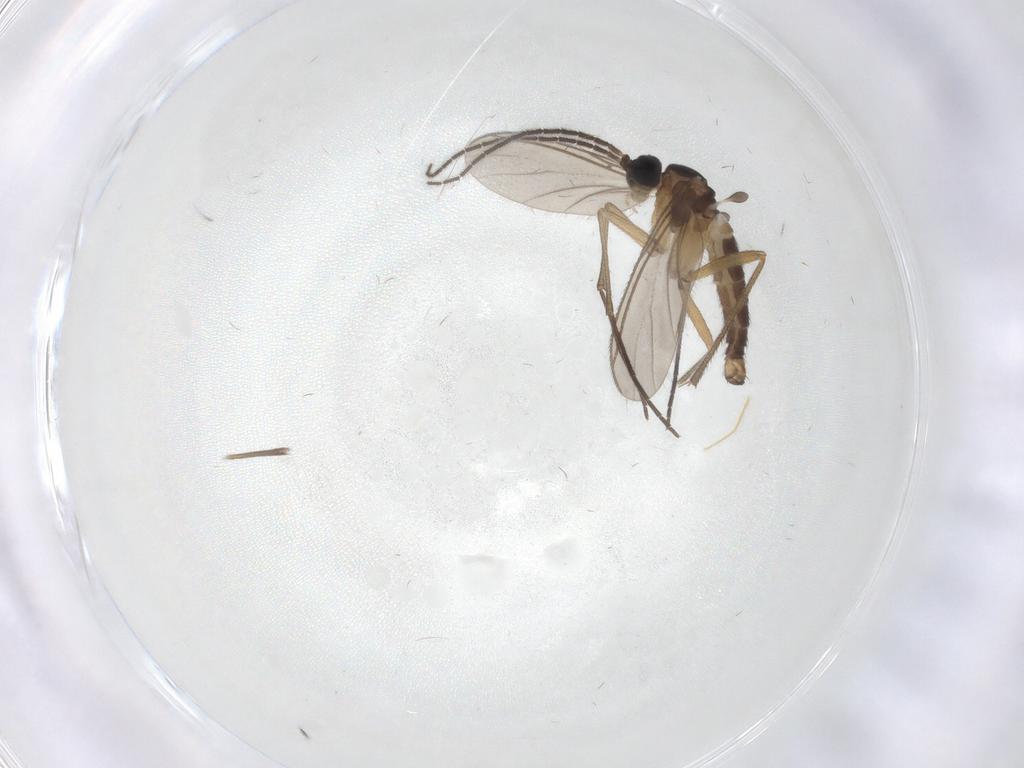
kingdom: Animalia
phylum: Arthropoda
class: Insecta
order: Diptera
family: Sciaridae
